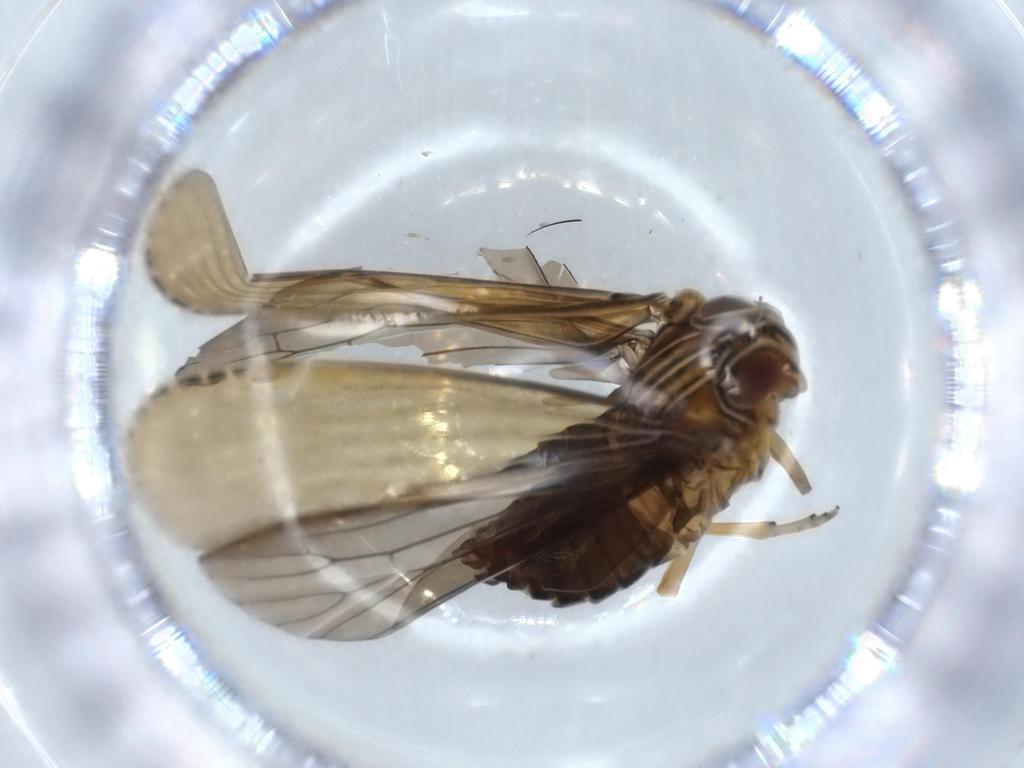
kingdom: Animalia
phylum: Arthropoda
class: Insecta
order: Hemiptera
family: Achilidae
